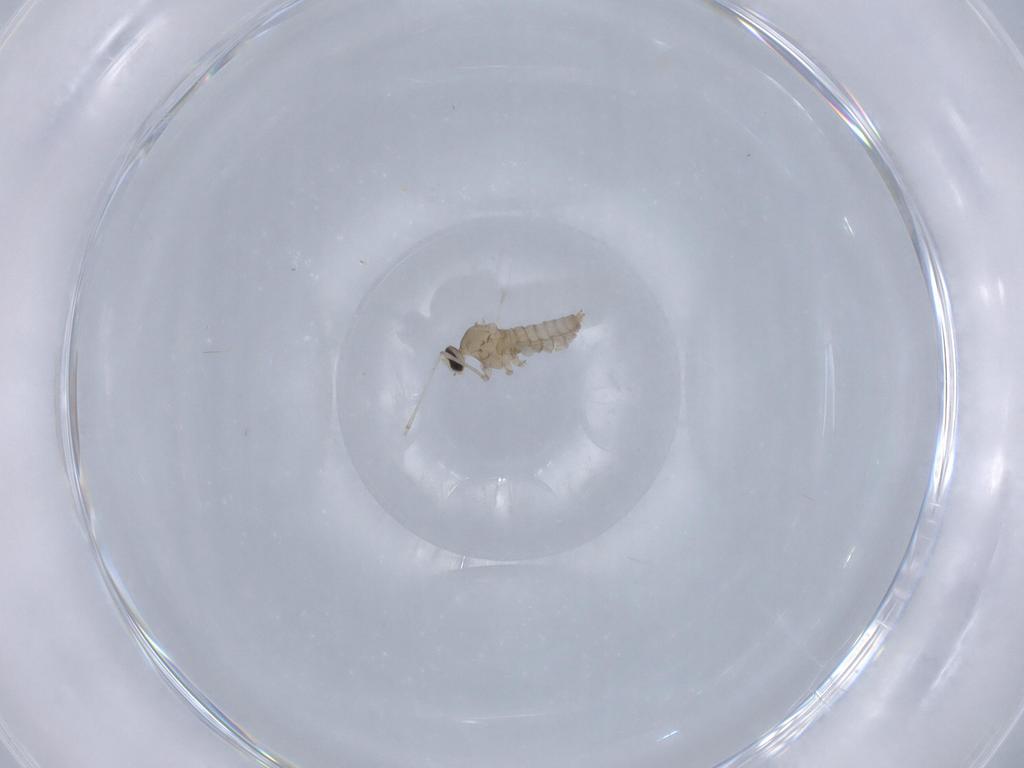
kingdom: Animalia
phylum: Arthropoda
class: Insecta
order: Diptera
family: Cecidomyiidae
